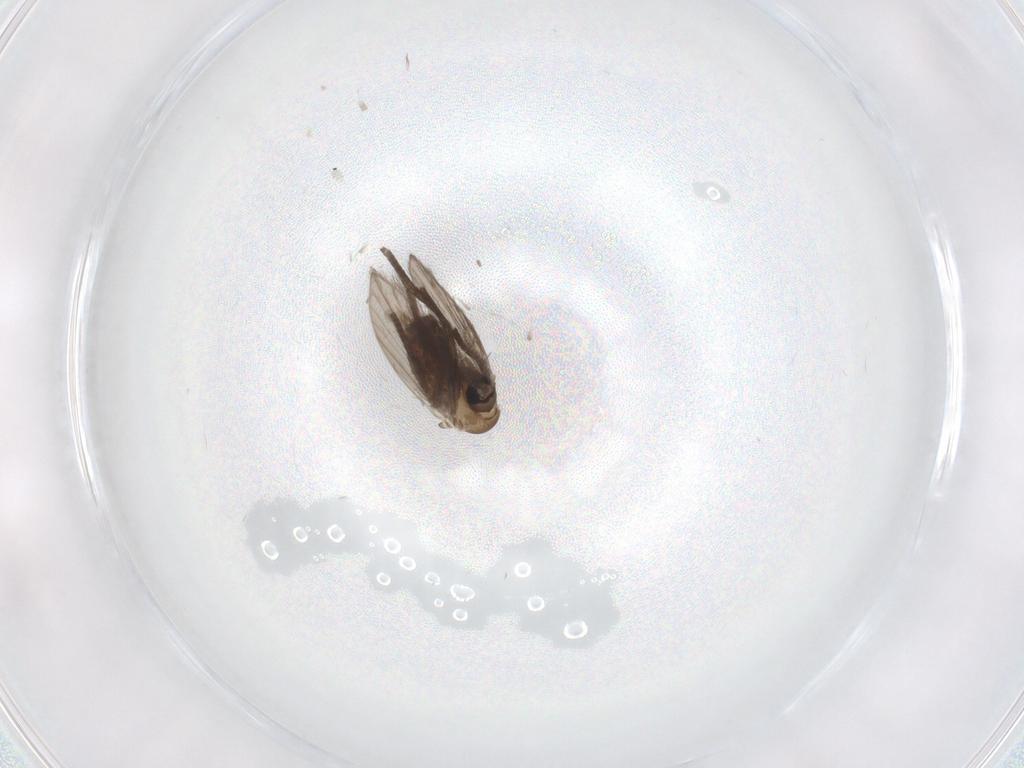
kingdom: Animalia
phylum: Arthropoda
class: Insecta
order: Diptera
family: Psychodidae
